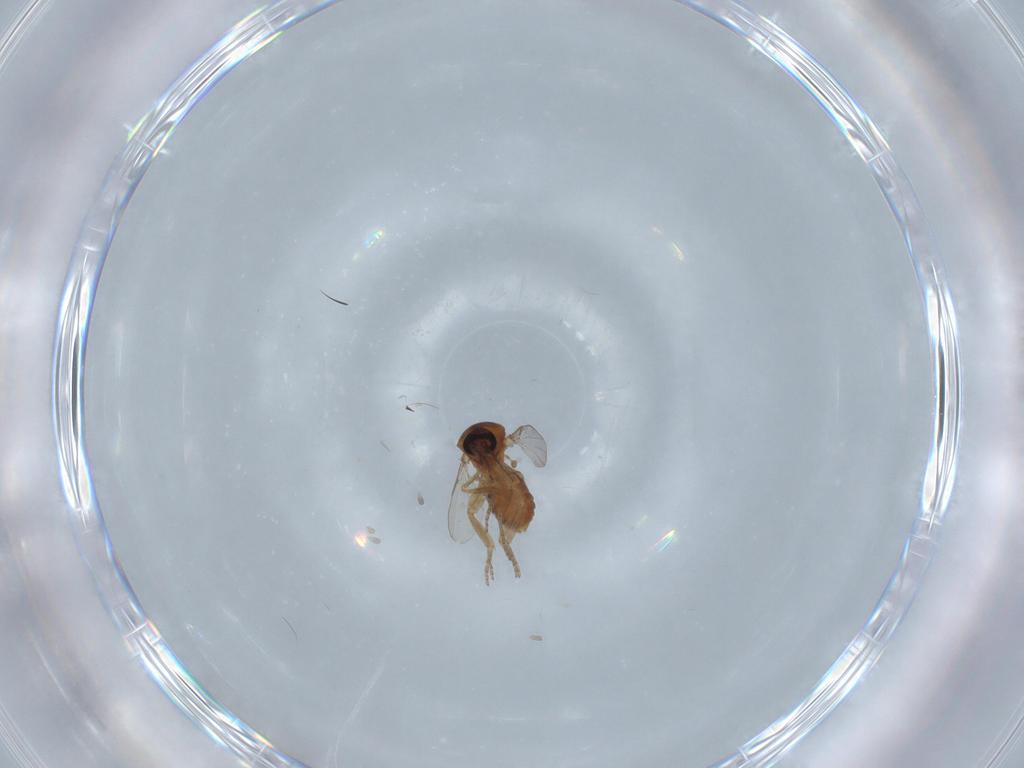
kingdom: Animalia
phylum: Arthropoda
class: Insecta
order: Diptera
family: Ceratopogonidae
